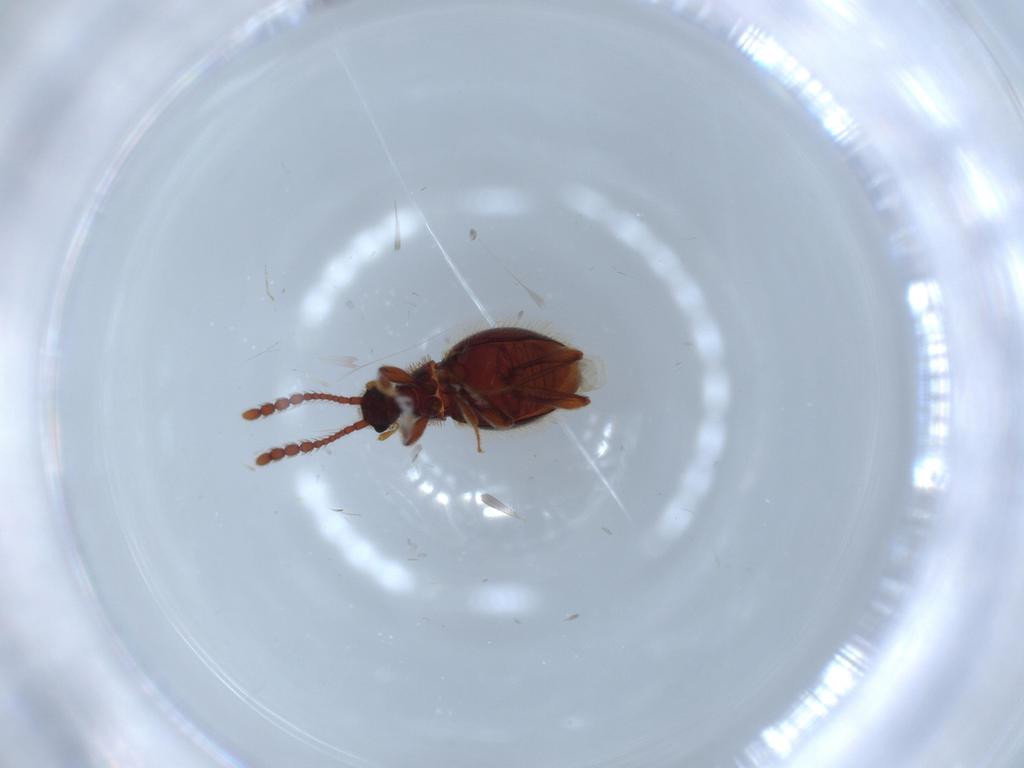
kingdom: Animalia
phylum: Arthropoda
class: Insecta
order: Coleoptera
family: Staphylinidae
